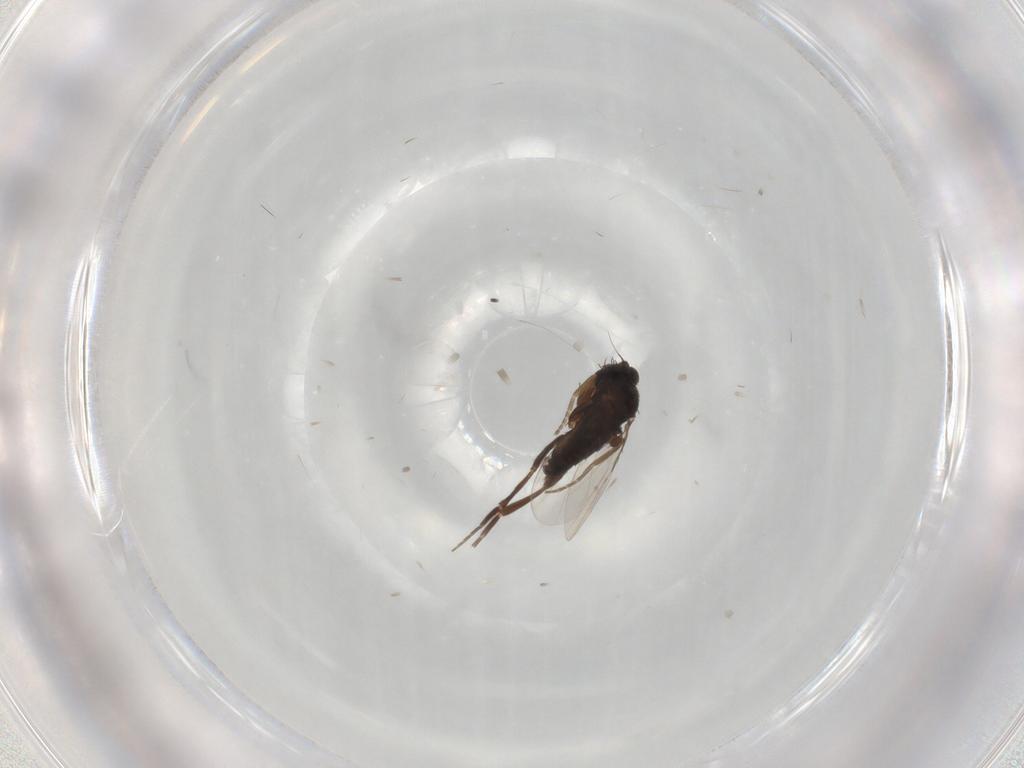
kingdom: Animalia
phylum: Arthropoda
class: Insecta
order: Diptera
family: Phoridae
